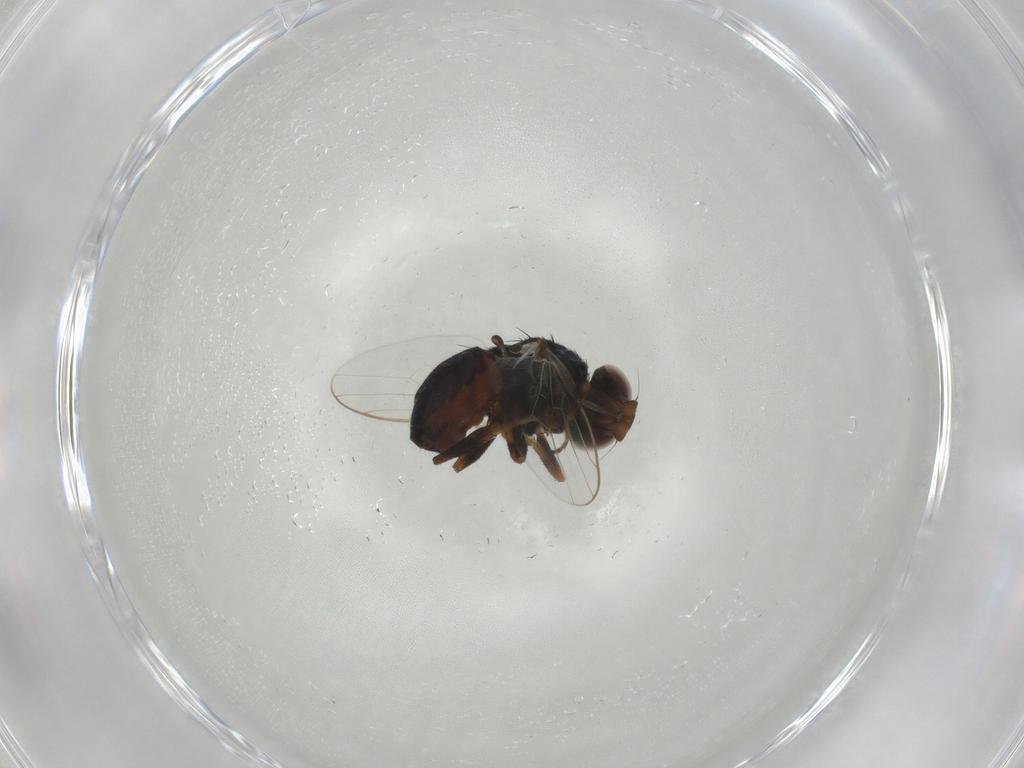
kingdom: Animalia
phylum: Arthropoda
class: Insecta
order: Diptera
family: Chloropidae
